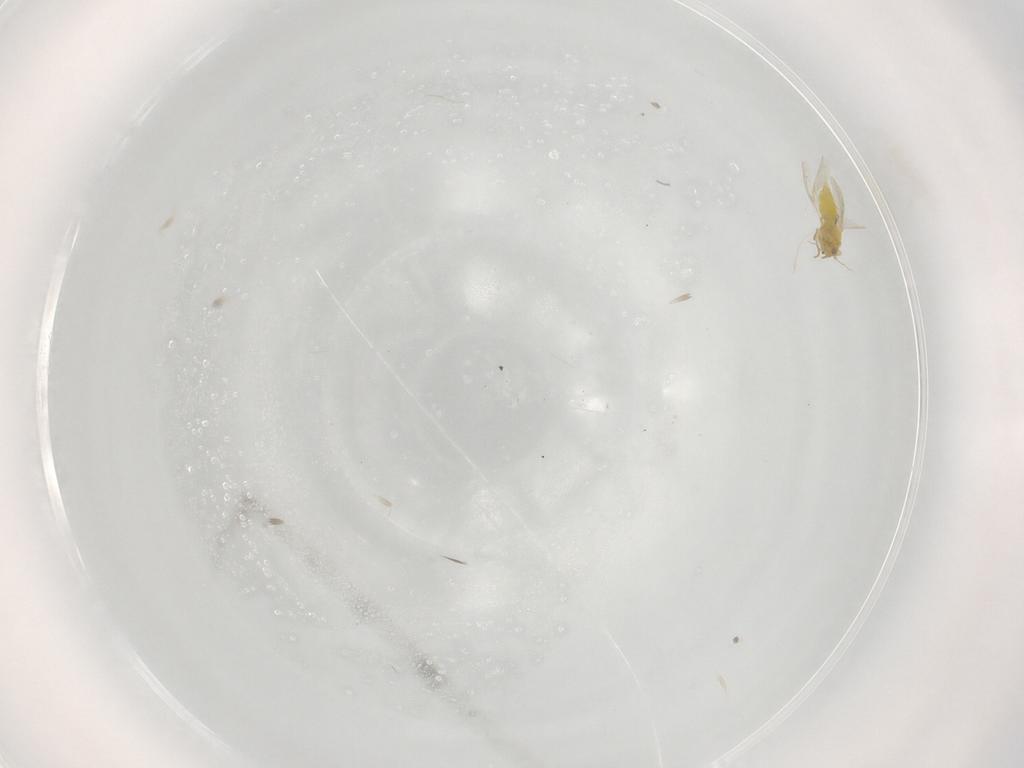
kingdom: Animalia
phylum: Arthropoda
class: Insecta
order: Hemiptera
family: Aleyrodidae
